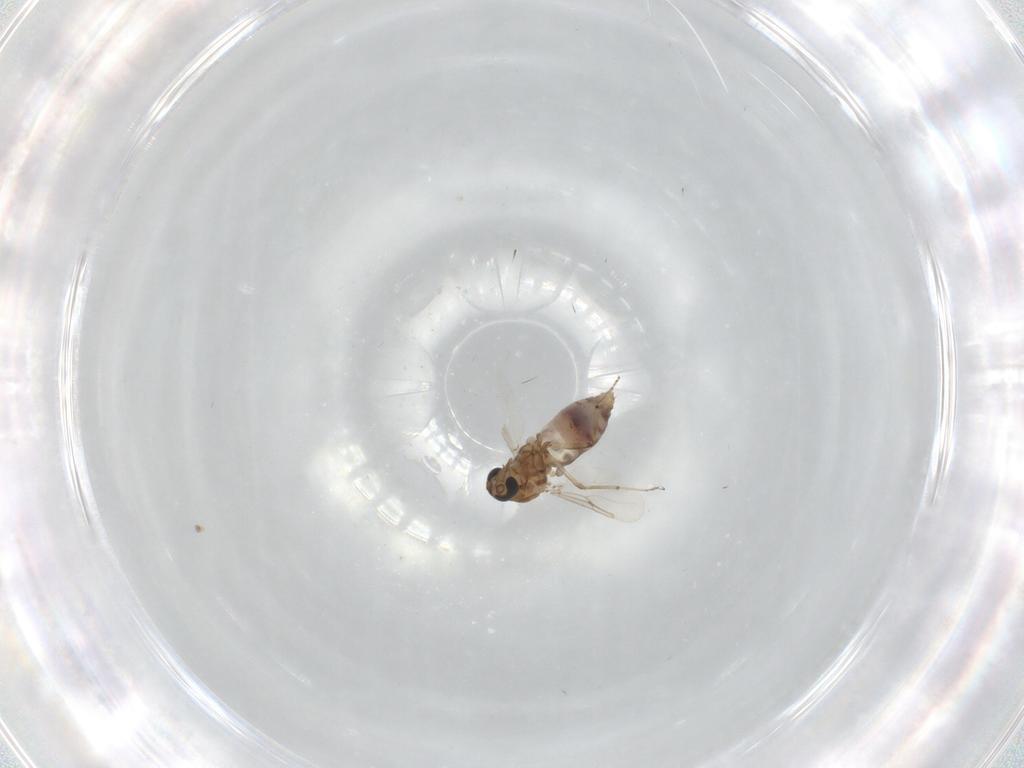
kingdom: Animalia
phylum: Arthropoda
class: Insecta
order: Diptera
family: Ceratopogonidae
